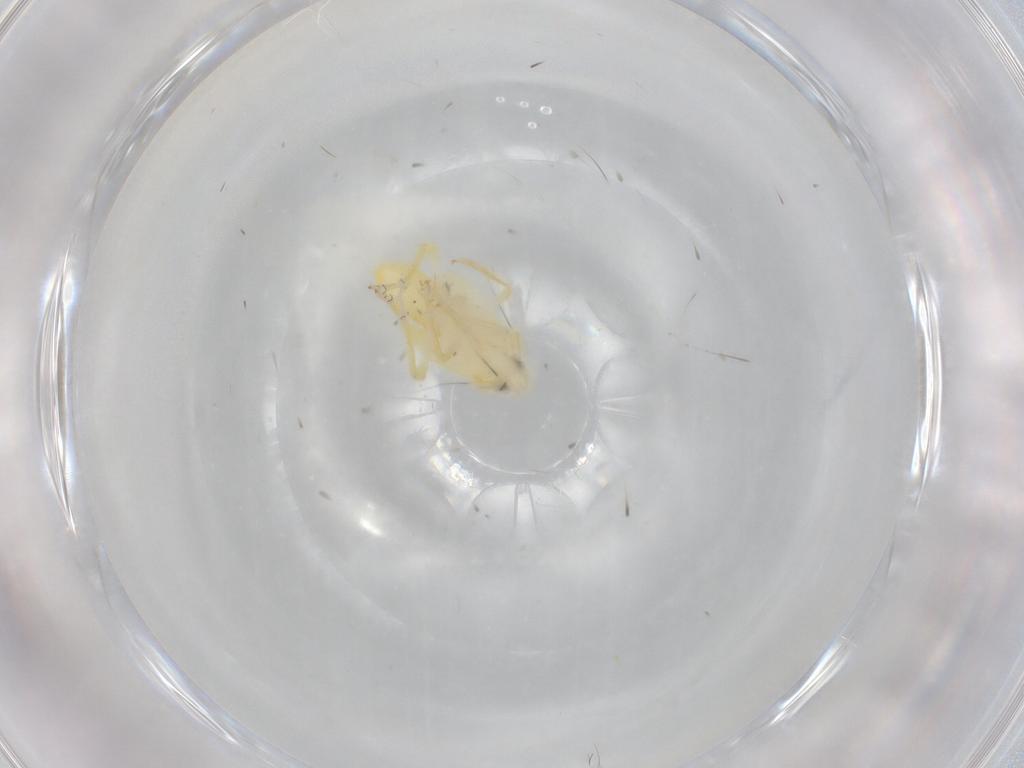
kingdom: Animalia
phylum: Arthropoda
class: Insecta
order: Hemiptera
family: Delphacidae
